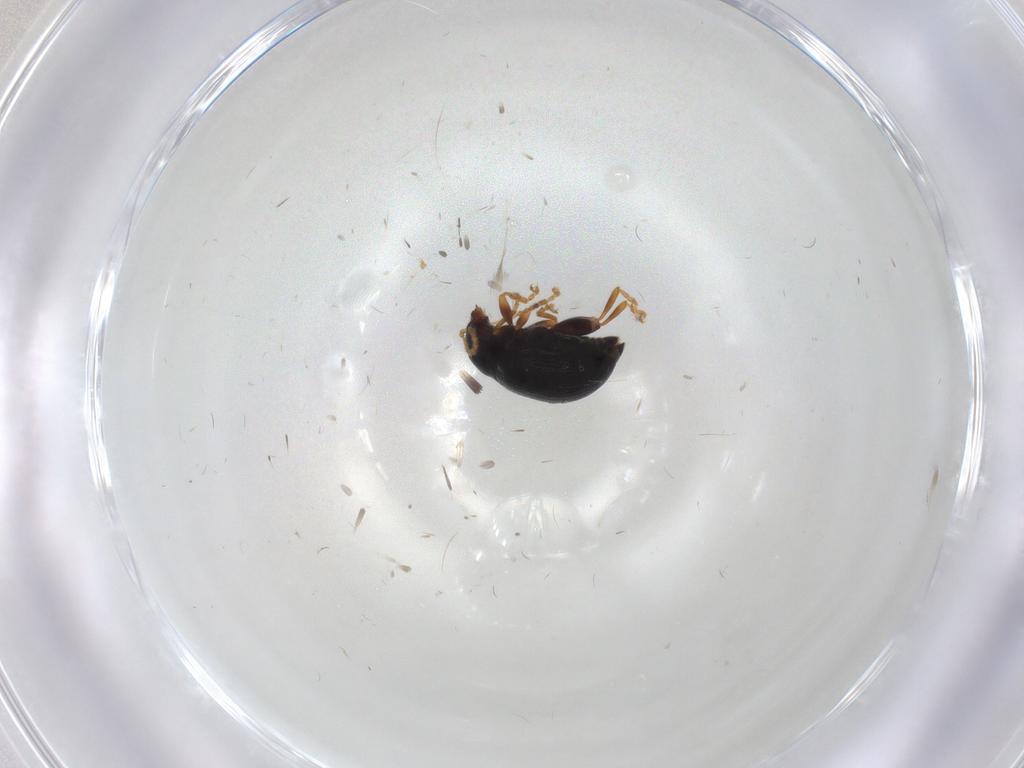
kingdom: Animalia
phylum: Arthropoda
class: Insecta
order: Coleoptera
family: Chrysomelidae
